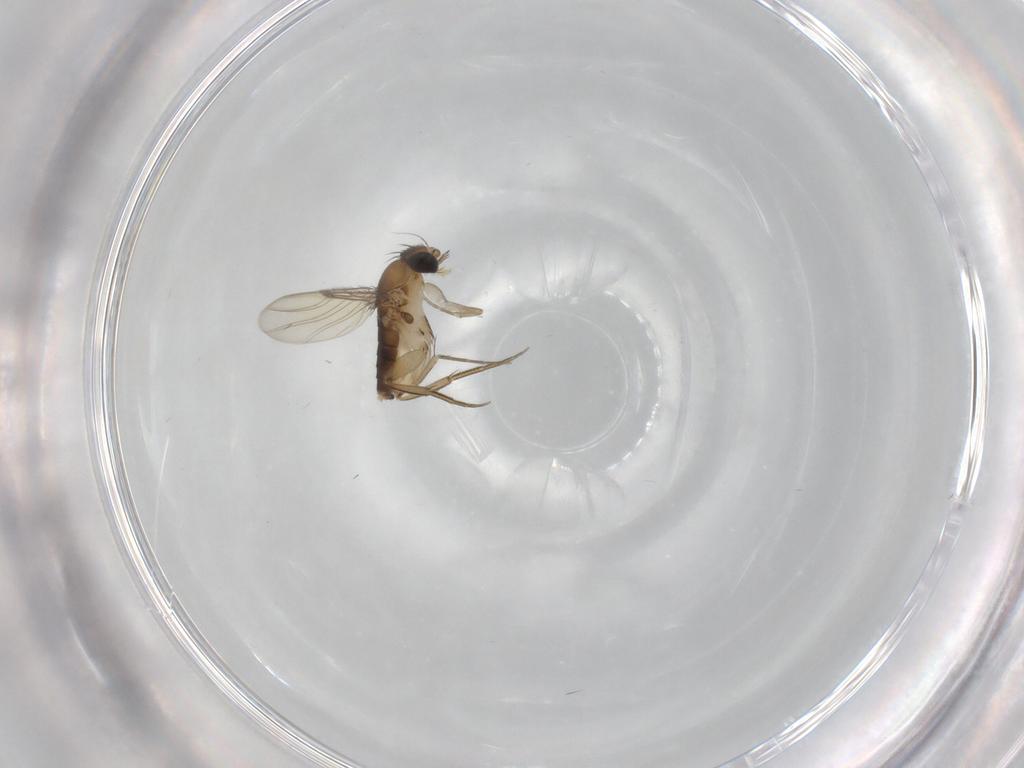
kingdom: Animalia
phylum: Arthropoda
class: Insecta
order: Diptera
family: Phoridae
